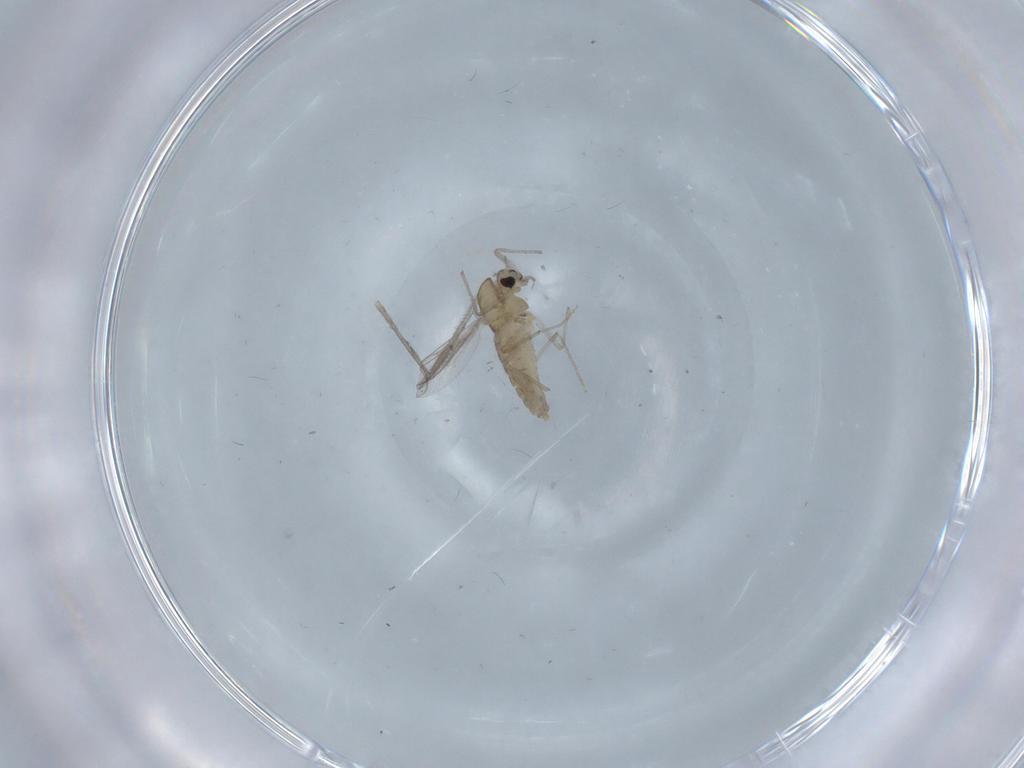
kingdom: Animalia
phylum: Arthropoda
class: Insecta
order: Diptera
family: Chironomidae
